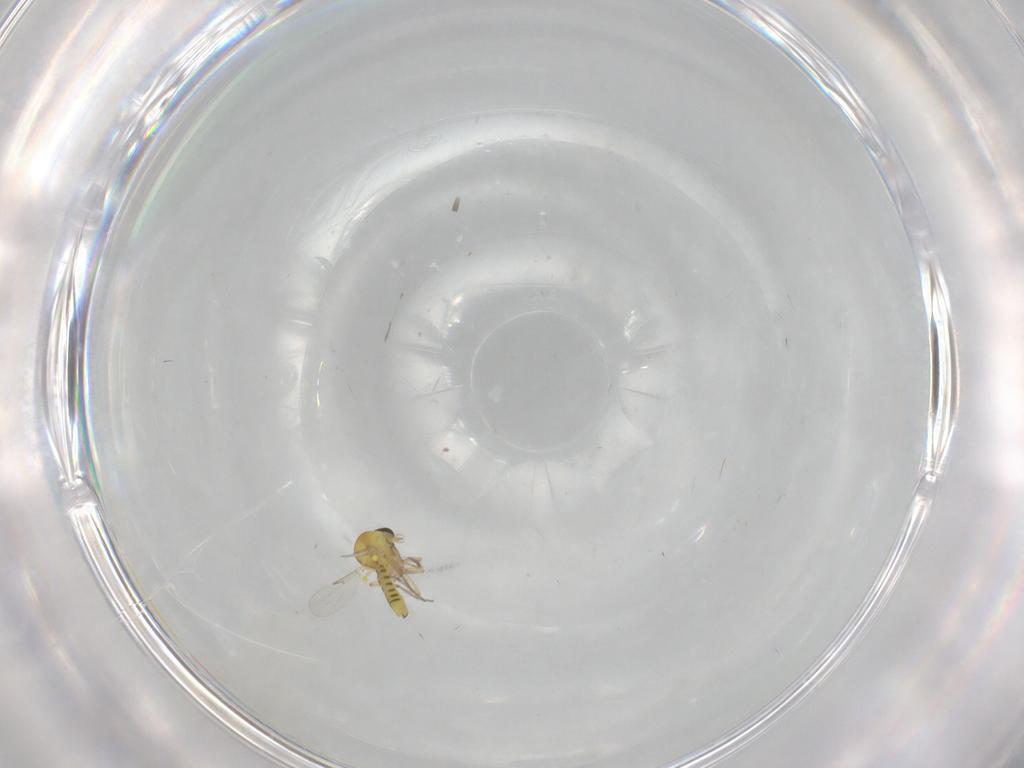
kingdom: Animalia
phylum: Arthropoda
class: Insecta
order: Diptera
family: Ceratopogonidae
